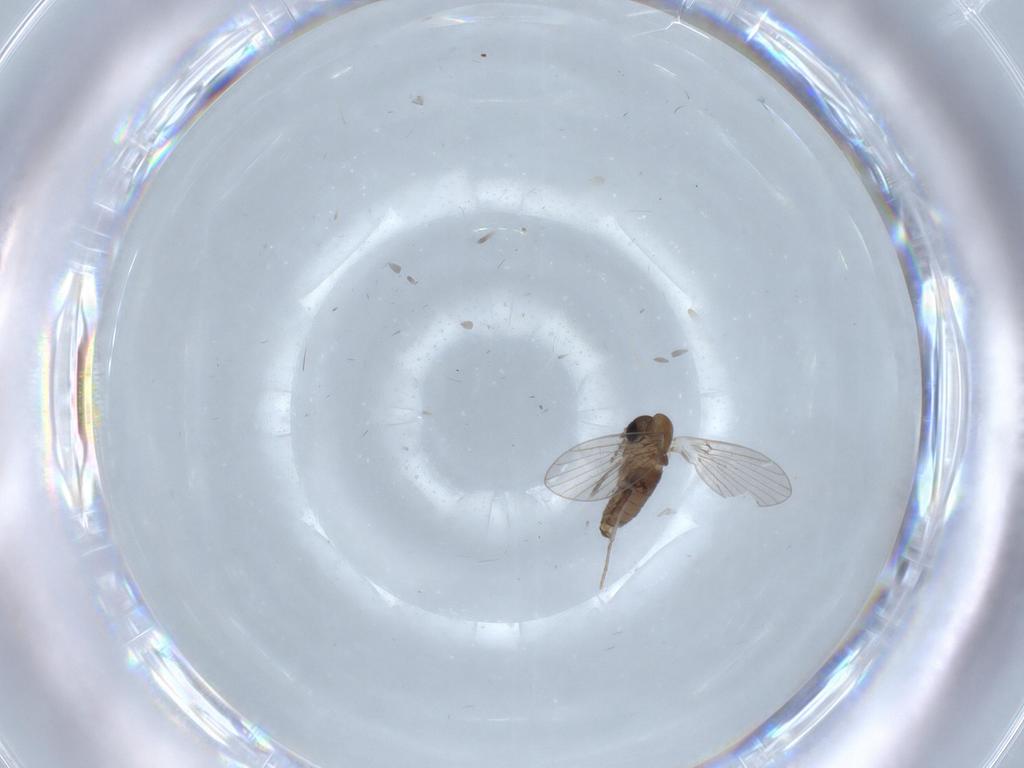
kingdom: Animalia
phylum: Arthropoda
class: Insecta
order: Diptera
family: Psychodidae
